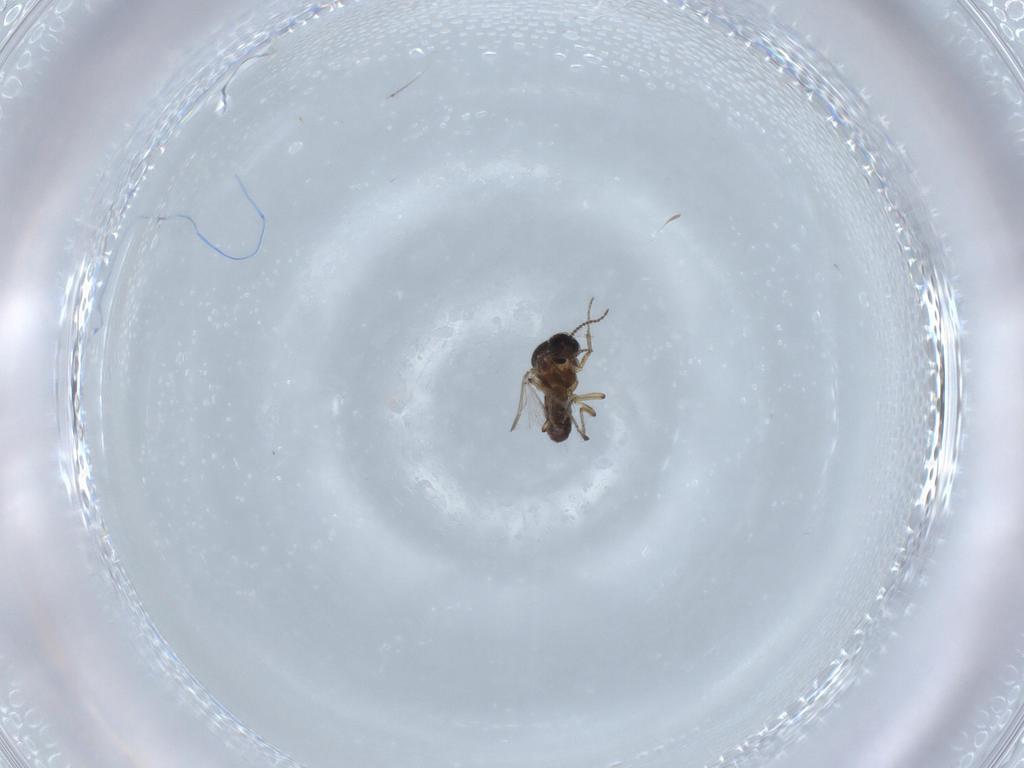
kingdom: Animalia
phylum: Arthropoda
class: Insecta
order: Diptera
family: Ceratopogonidae
